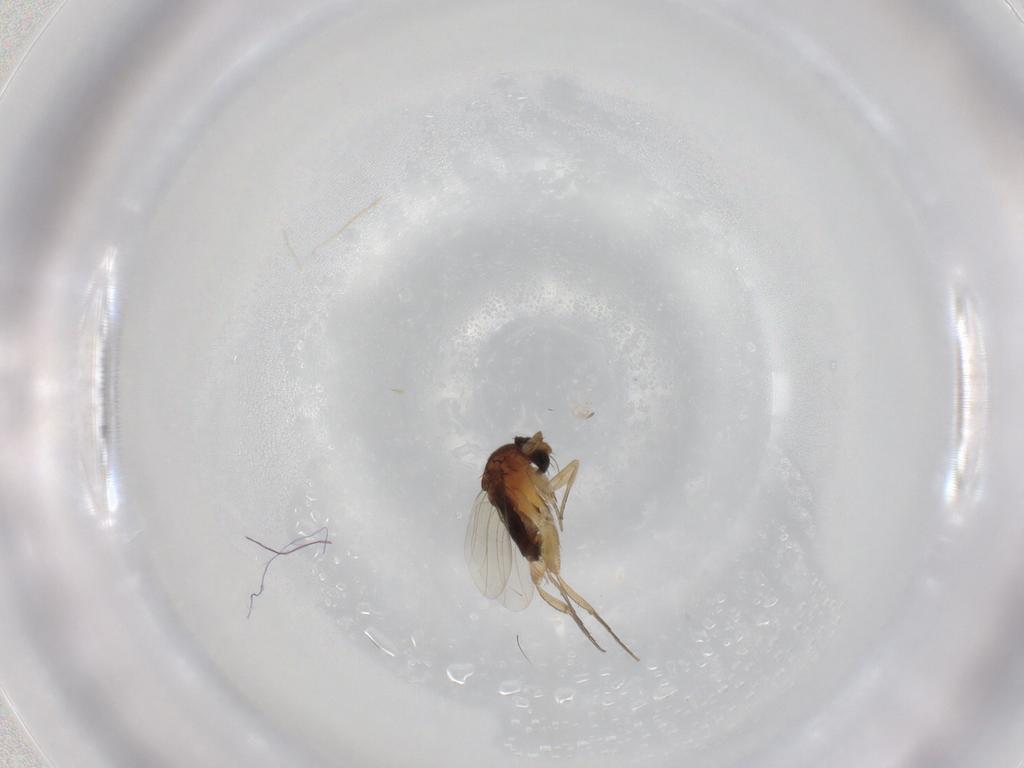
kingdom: Animalia
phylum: Arthropoda
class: Insecta
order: Diptera
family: Phoridae
